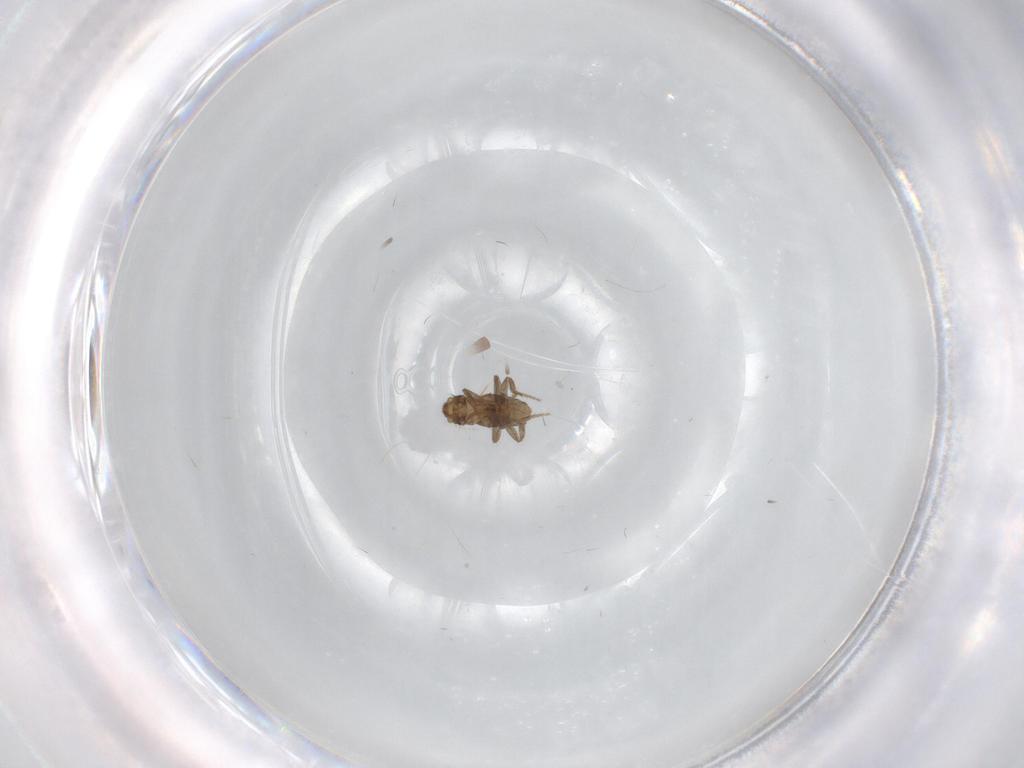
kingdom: Animalia
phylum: Arthropoda
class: Insecta
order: Diptera
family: Phoridae
